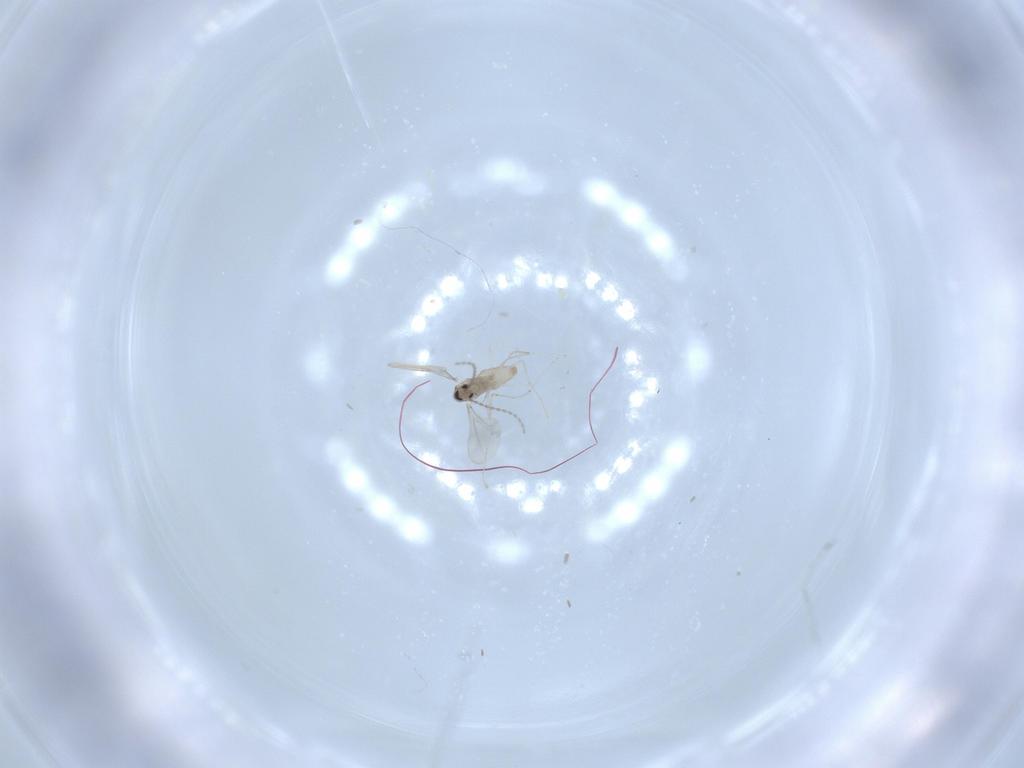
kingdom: Animalia
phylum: Arthropoda
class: Insecta
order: Diptera
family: Cecidomyiidae
